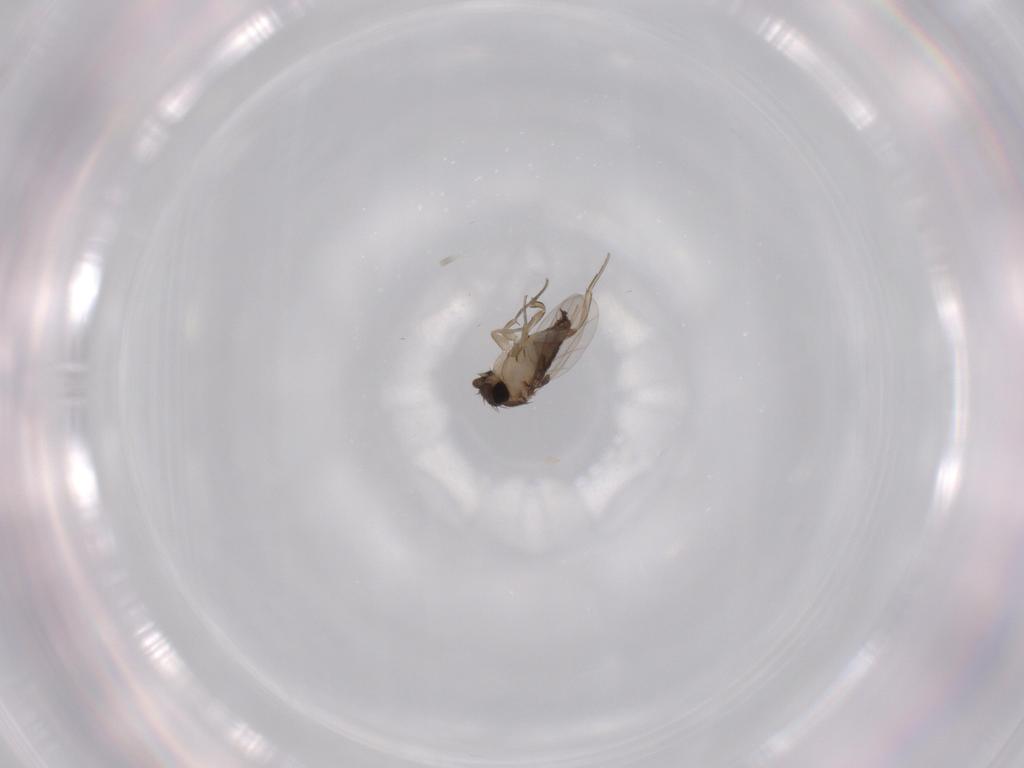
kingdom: Animalia
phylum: Arthropoda
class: Insecta
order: Diptera
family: Phoridae
